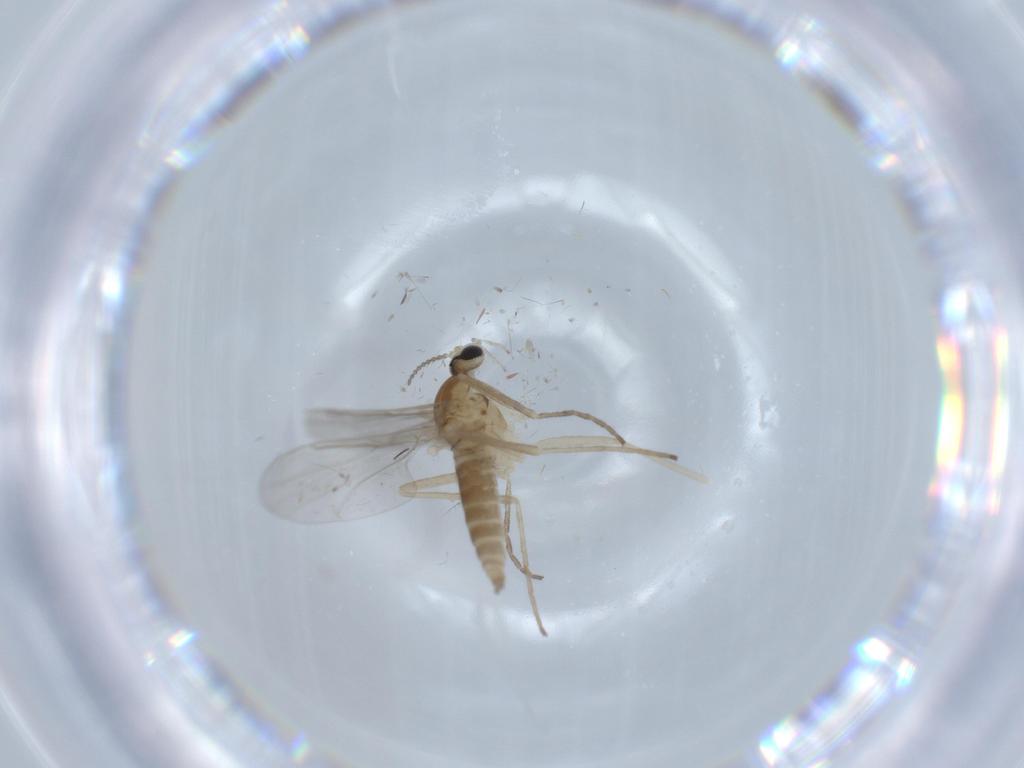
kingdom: Animalia
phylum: Arthropoda
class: Insecta
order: Diptera
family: Cecidomyiidae
